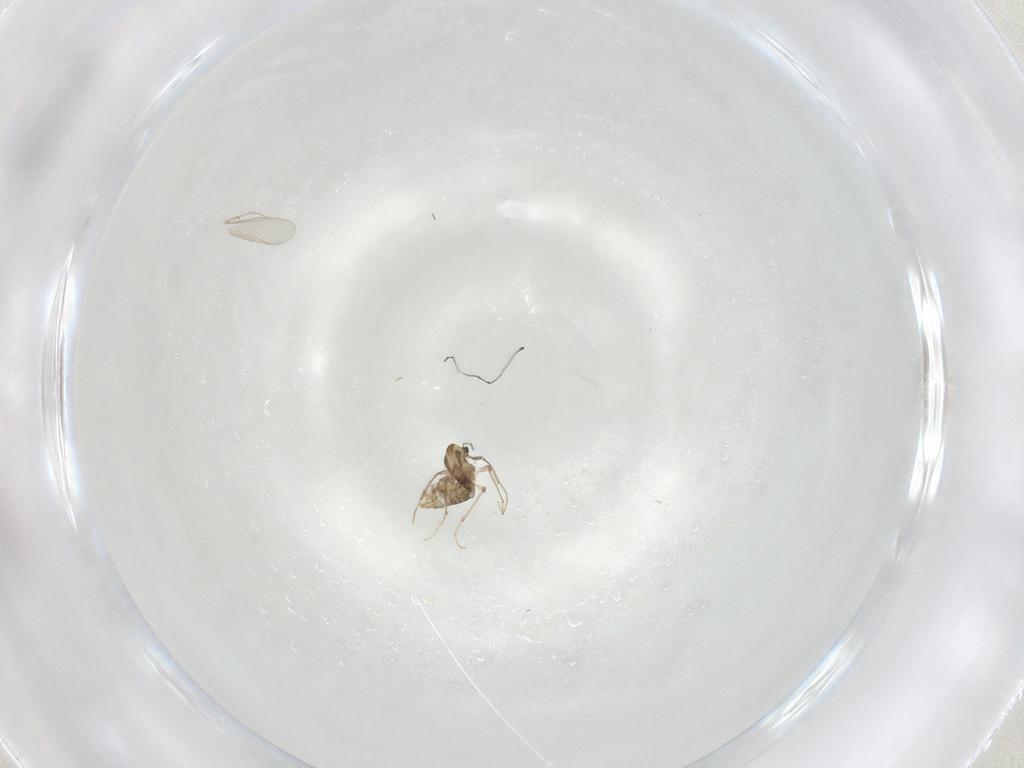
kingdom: Animalia
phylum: Arthropoda
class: Insecta
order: Diptera
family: Chironomidae
